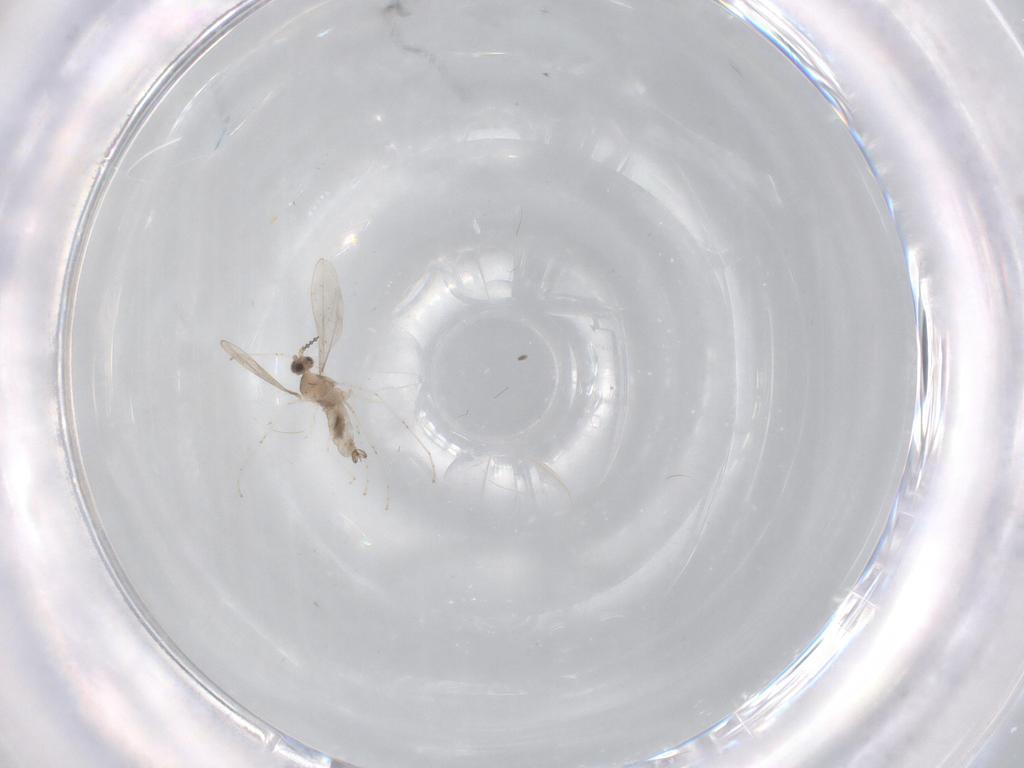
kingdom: Animalia
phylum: Arthropoda
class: Insecta
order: Diptera
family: Cecidomyiidae
